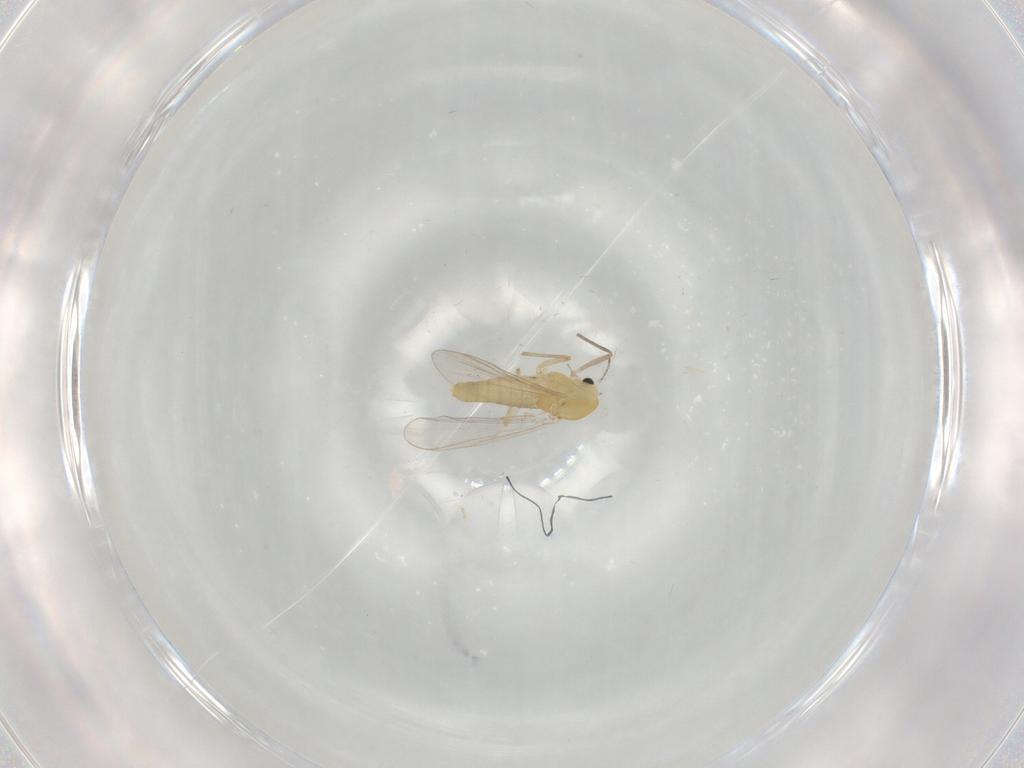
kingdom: Animalia
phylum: Arthropoda
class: Insecta
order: Diptera
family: Chironomidae
